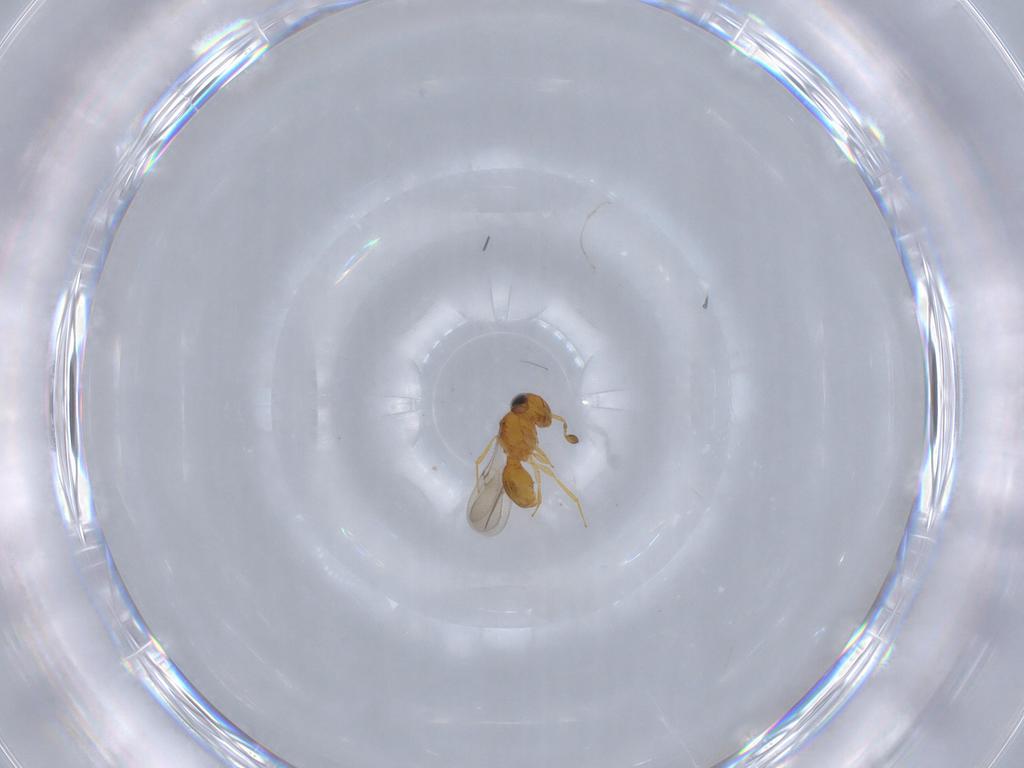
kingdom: Animalia
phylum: Arthropoda
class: Insecta
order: Hymenoptera
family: Scelionidae
